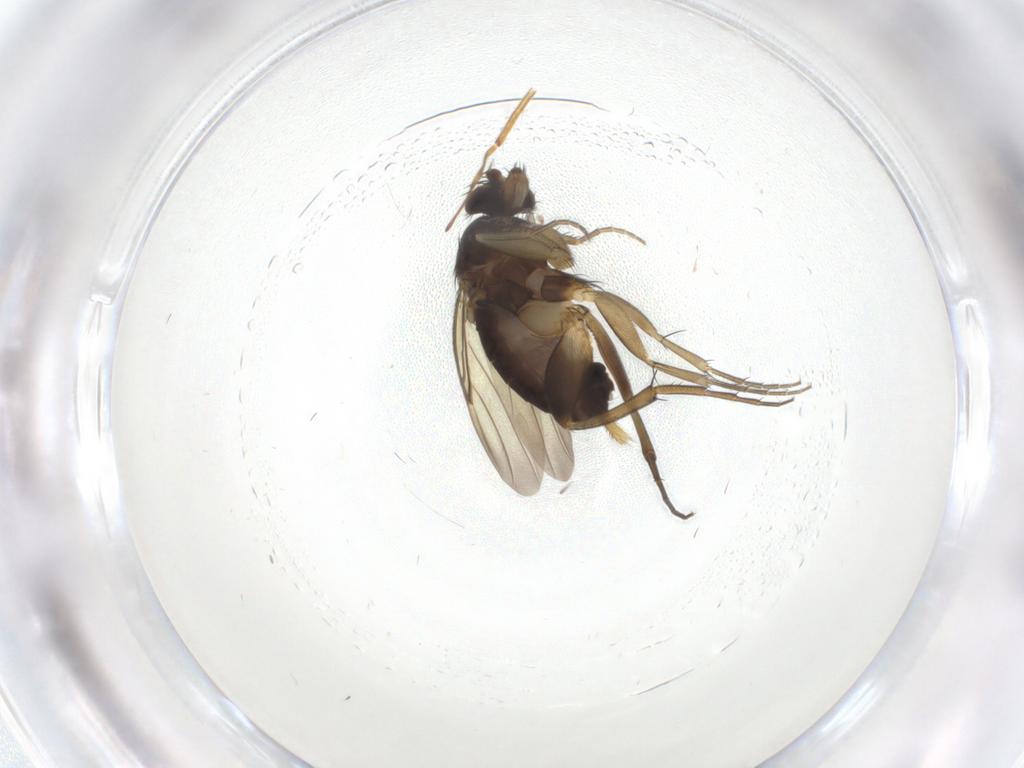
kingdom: Animalia
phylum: Arthropoda
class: Insecta
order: Diptera
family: Phoridae
